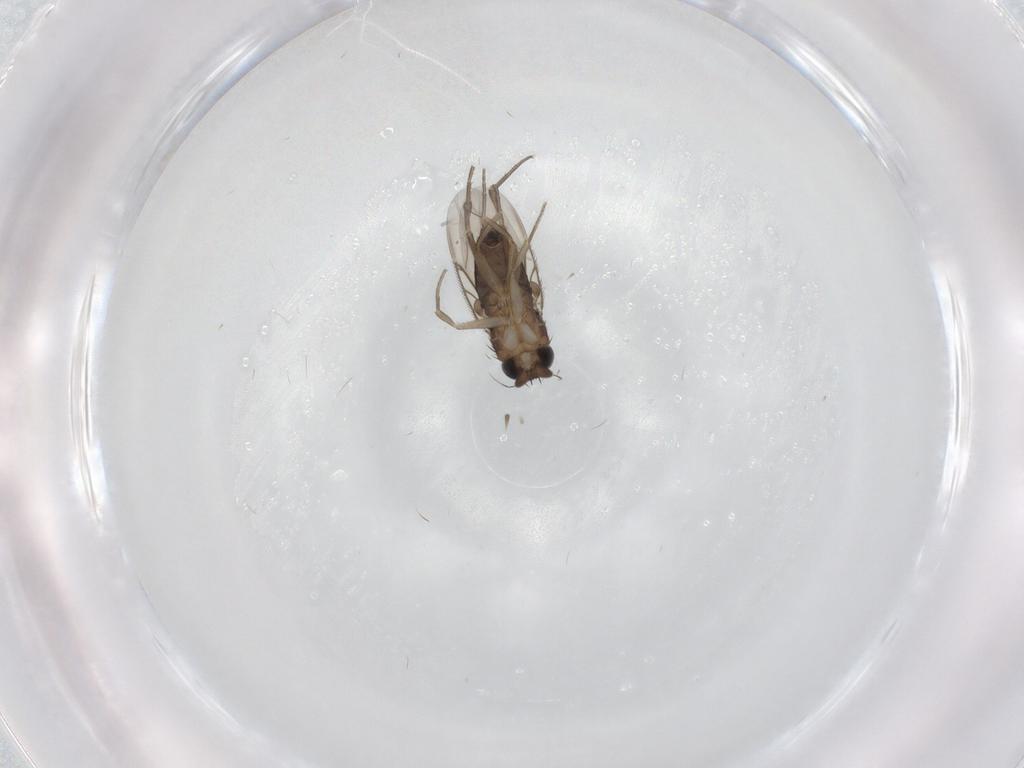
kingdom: Animalia
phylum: Arthropoda
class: Insecta
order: Diptera
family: Phoridae
